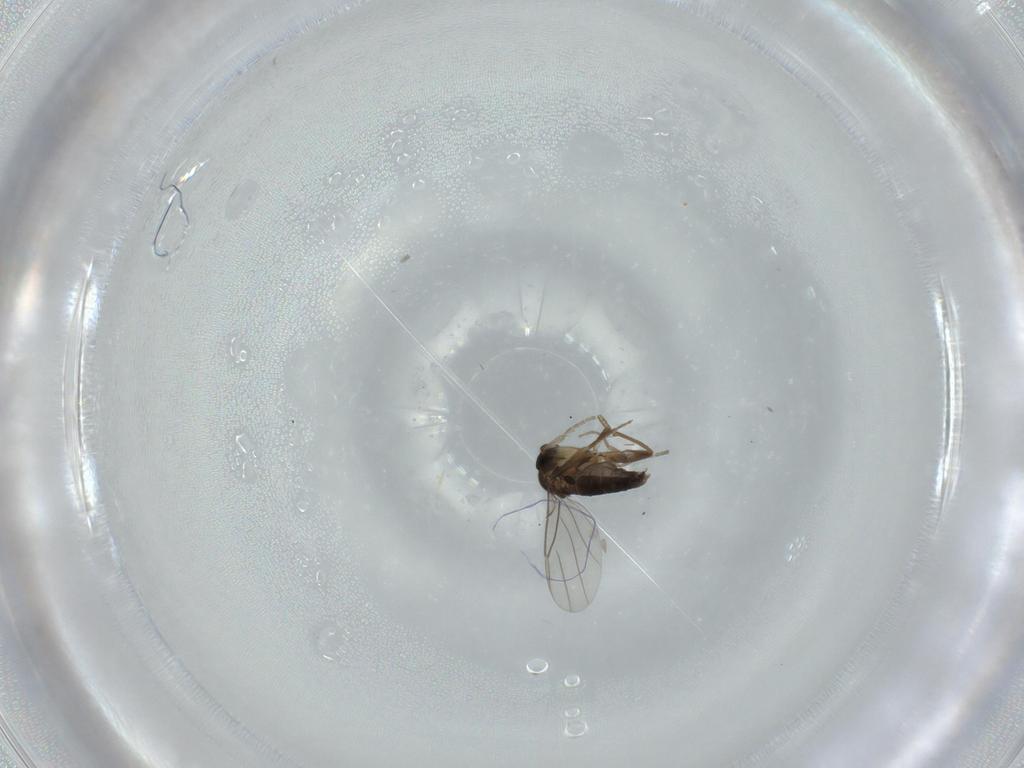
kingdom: Animalia
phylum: Arthropoda
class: Insecta
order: Diptera
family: Phoridae
